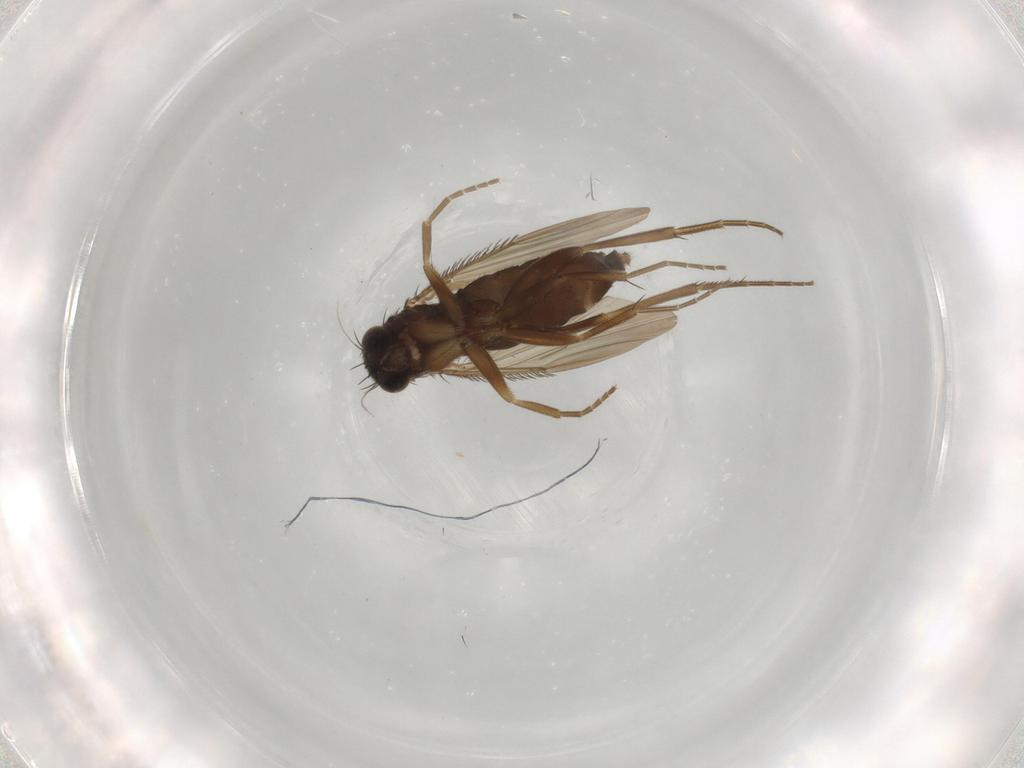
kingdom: Animalia
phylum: Arthropoda
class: Insecta
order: Diptera
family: Phoridae
